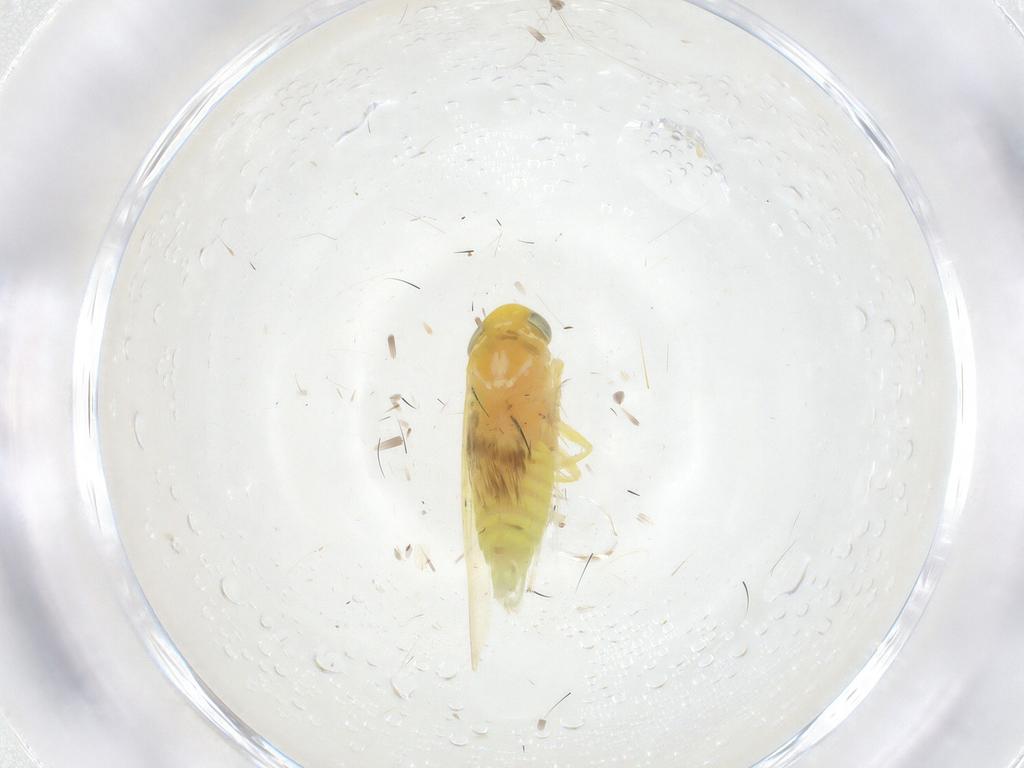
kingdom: Animalia
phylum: Arthropoda
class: Insecta
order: Hemiptera
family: Cicadellidae
